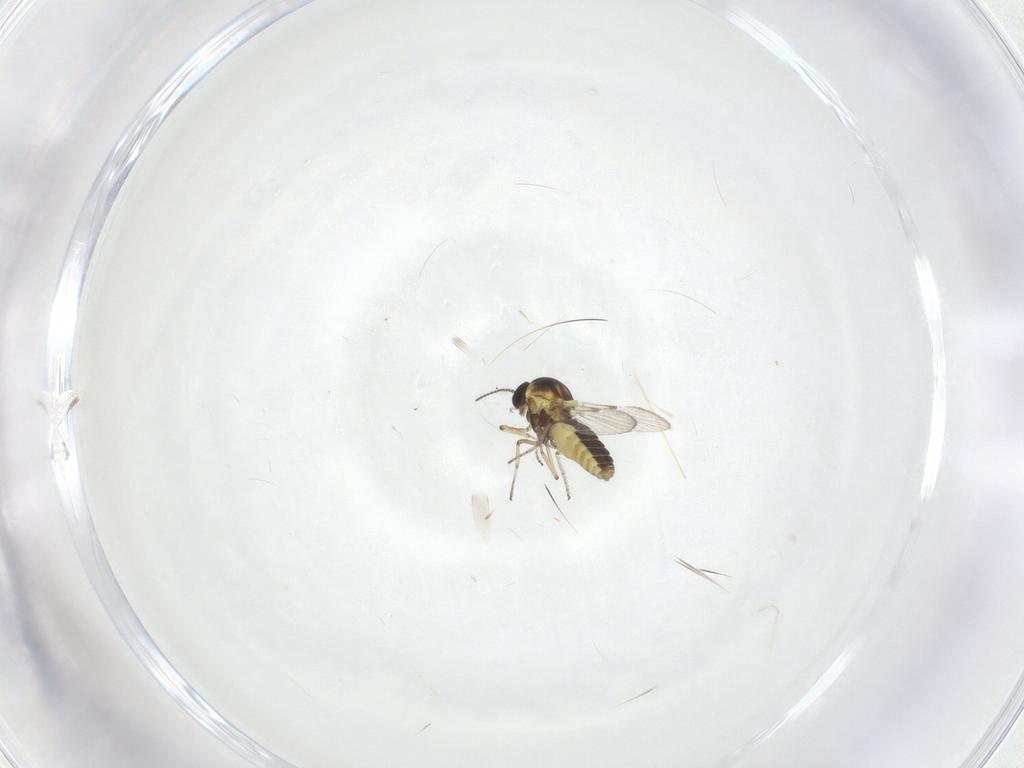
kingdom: Animalia
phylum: Arthropoda
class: Insecta
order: Diptera
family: Ceratopogonidae
